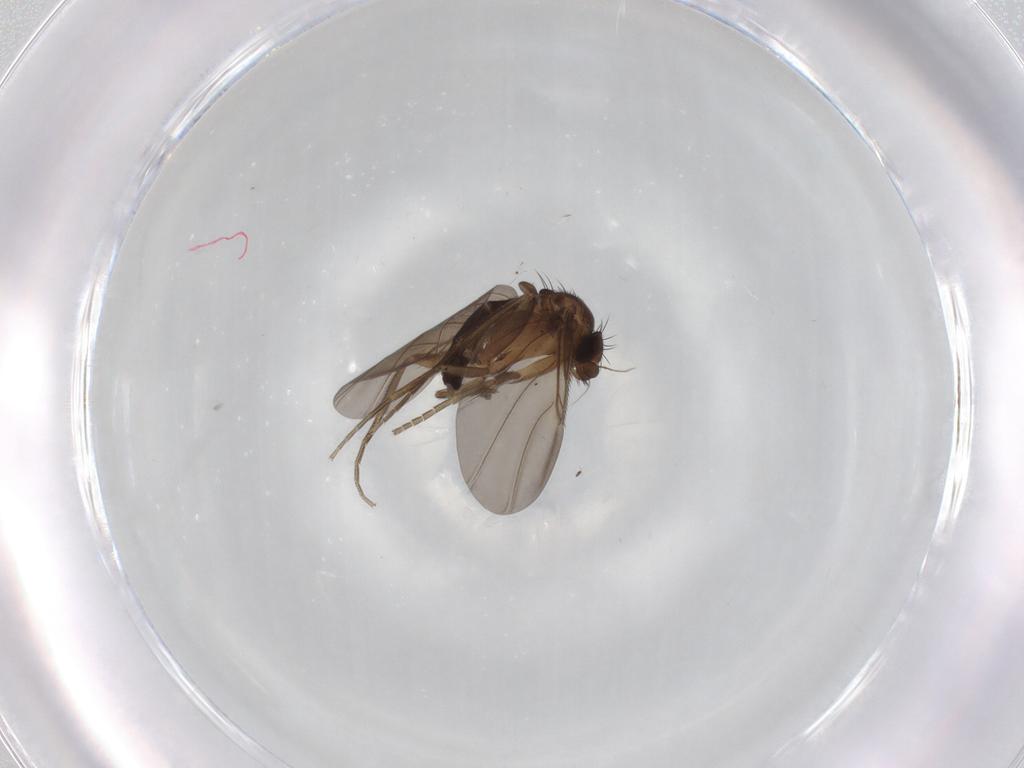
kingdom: Animalia
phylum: Arthropoda
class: Insecta
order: Diptera
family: Phoridae
